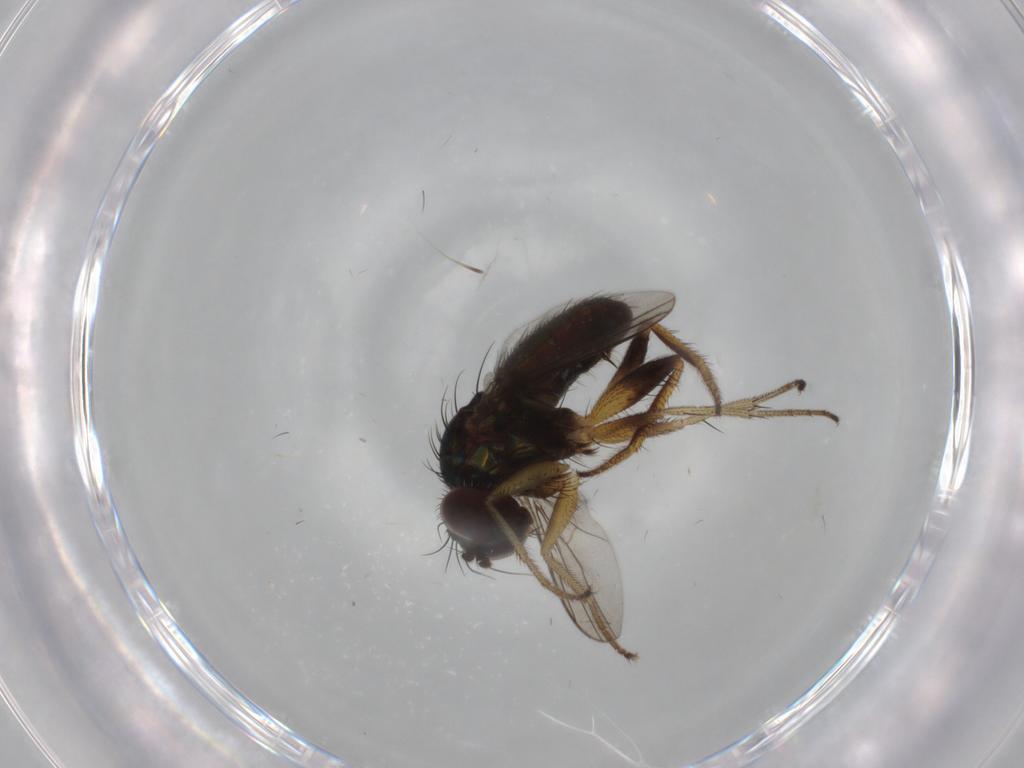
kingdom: Animalia
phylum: Arthropoda
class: Insecta
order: Diptera
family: Dolichopodidae
